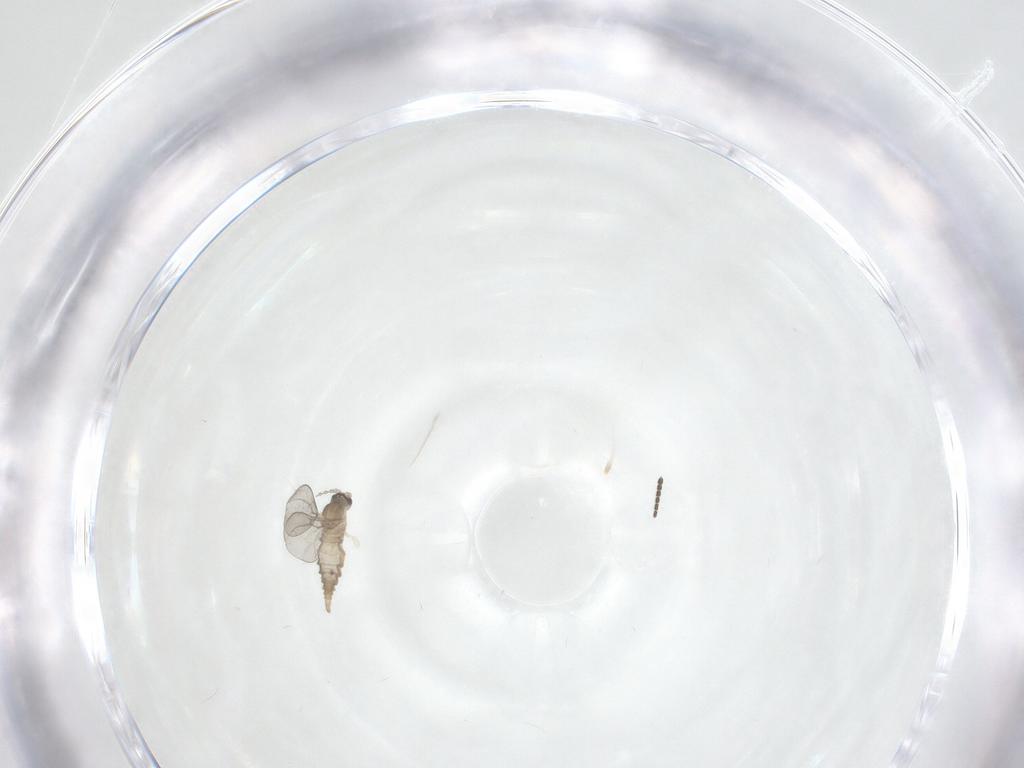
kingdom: Animalia
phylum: Arthropoda
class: Insecta
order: Diptera
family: Cecidomyiidae
